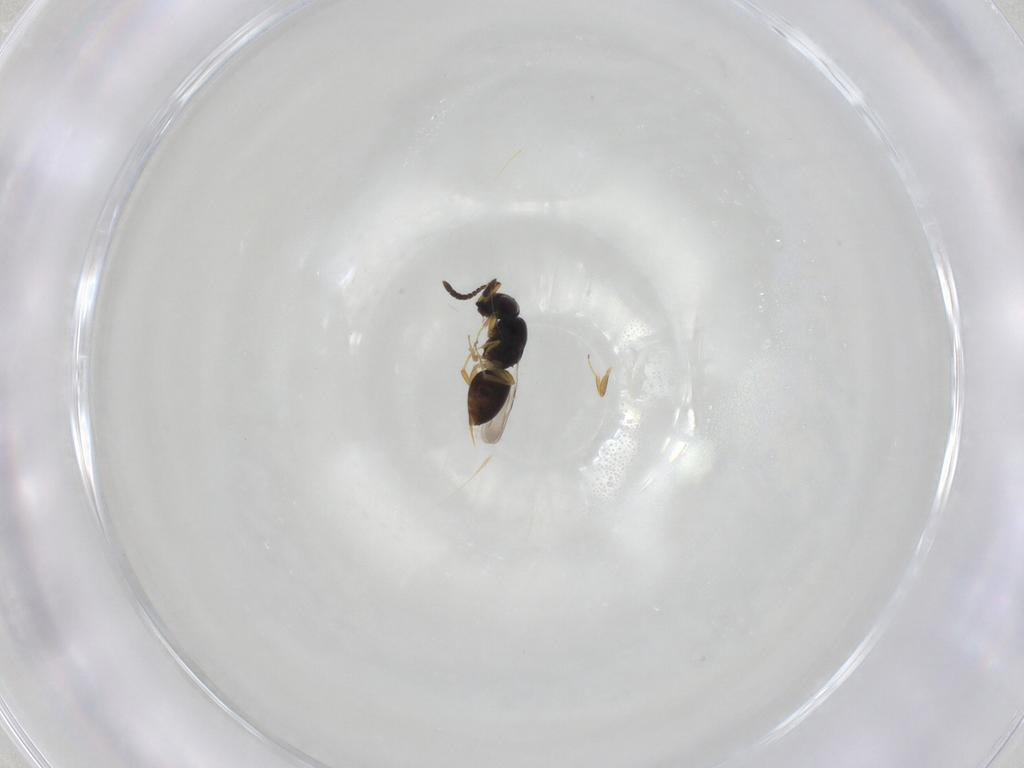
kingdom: Animalia
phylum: Arthropoda
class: Insecta
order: Hymenoptera
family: Ceraphronidae
